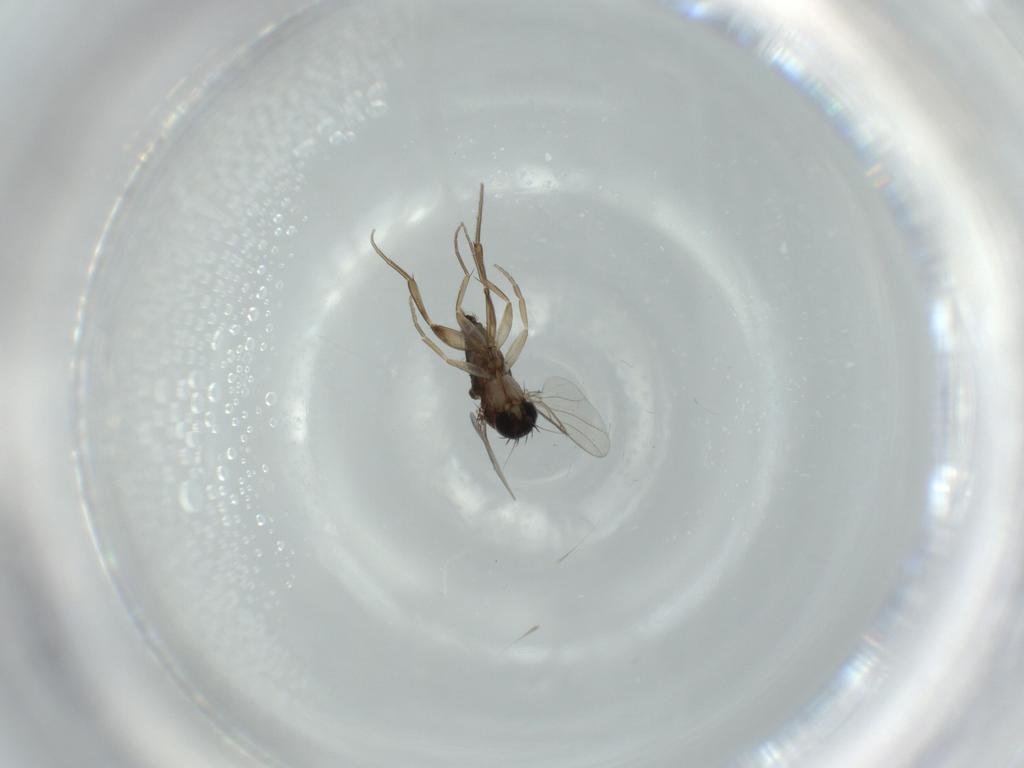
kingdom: Animalia
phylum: Arthropoda
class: Insecta
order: Diptera
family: Phoridae
